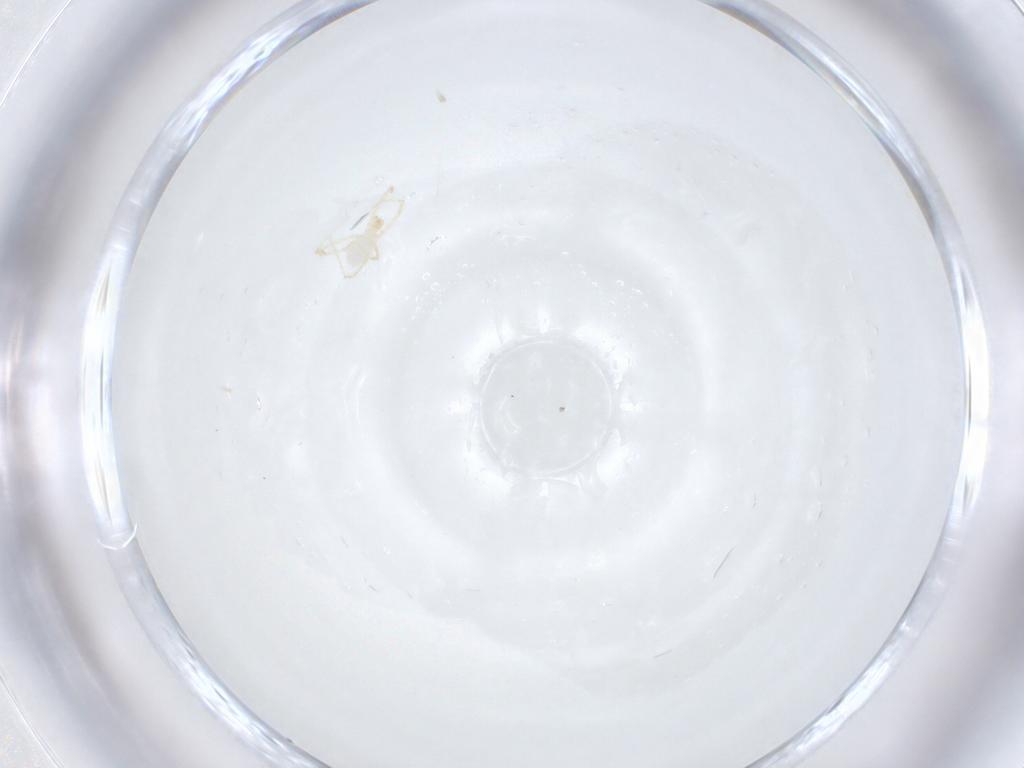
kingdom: Animalia
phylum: Arthropoda
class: Arachnida
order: Trombidiformes
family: Erythraeidae
